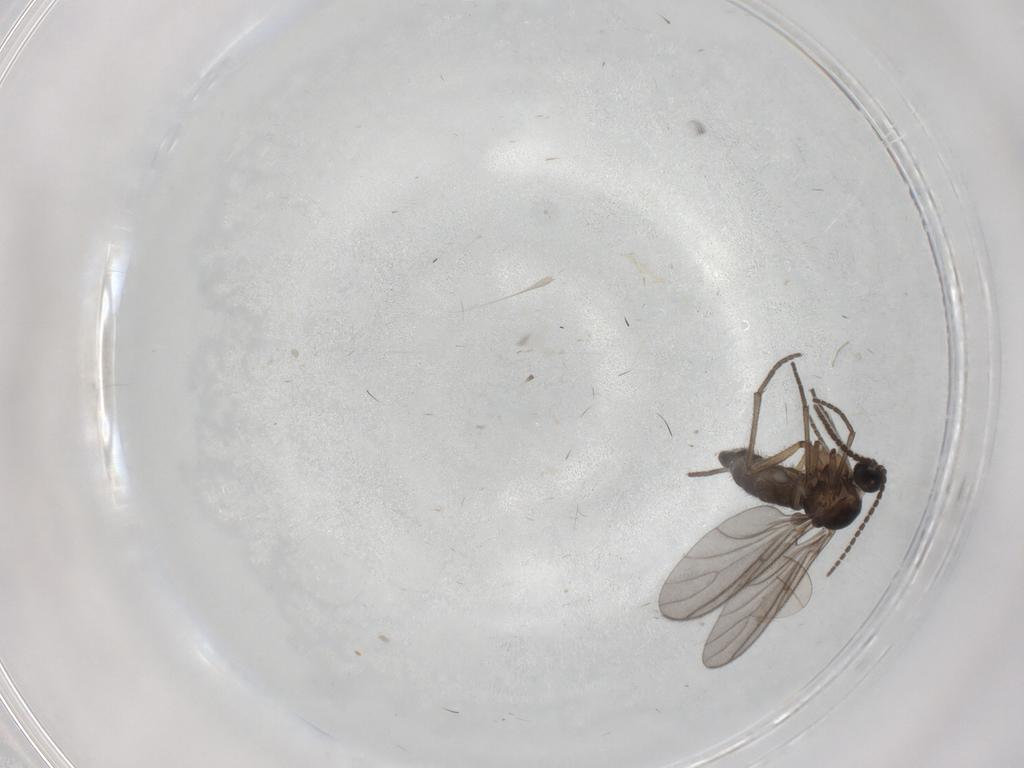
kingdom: Animalia
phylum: Arthropoda
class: Insecta
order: Diptera
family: Sciaridae
